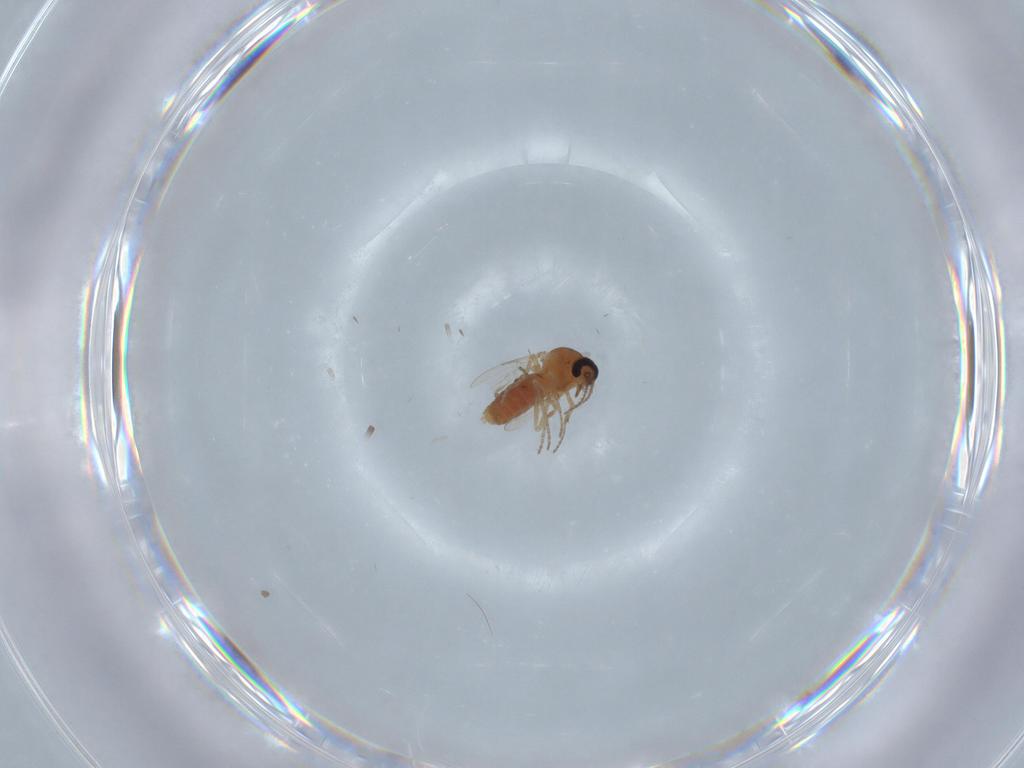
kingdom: Animalia
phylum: Arthropoda
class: Insecta
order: Diptera
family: Ceratopogonidae
